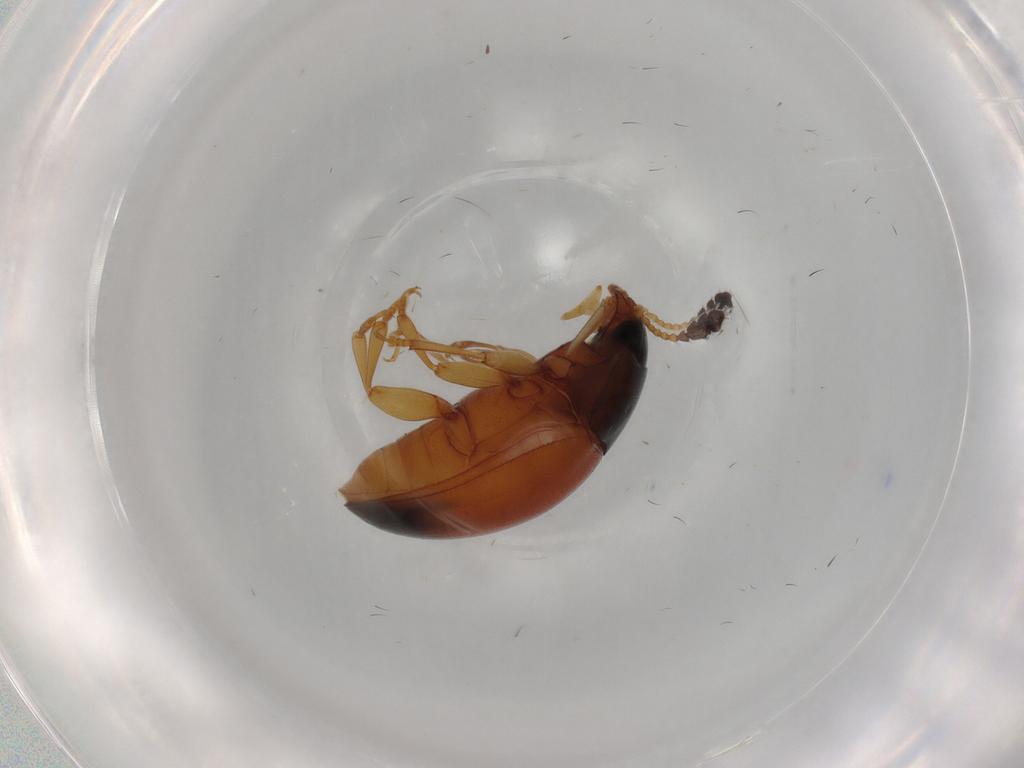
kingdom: Animalia
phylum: Arthropoda
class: Insecta
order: Coleoptera
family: Erotylidae
